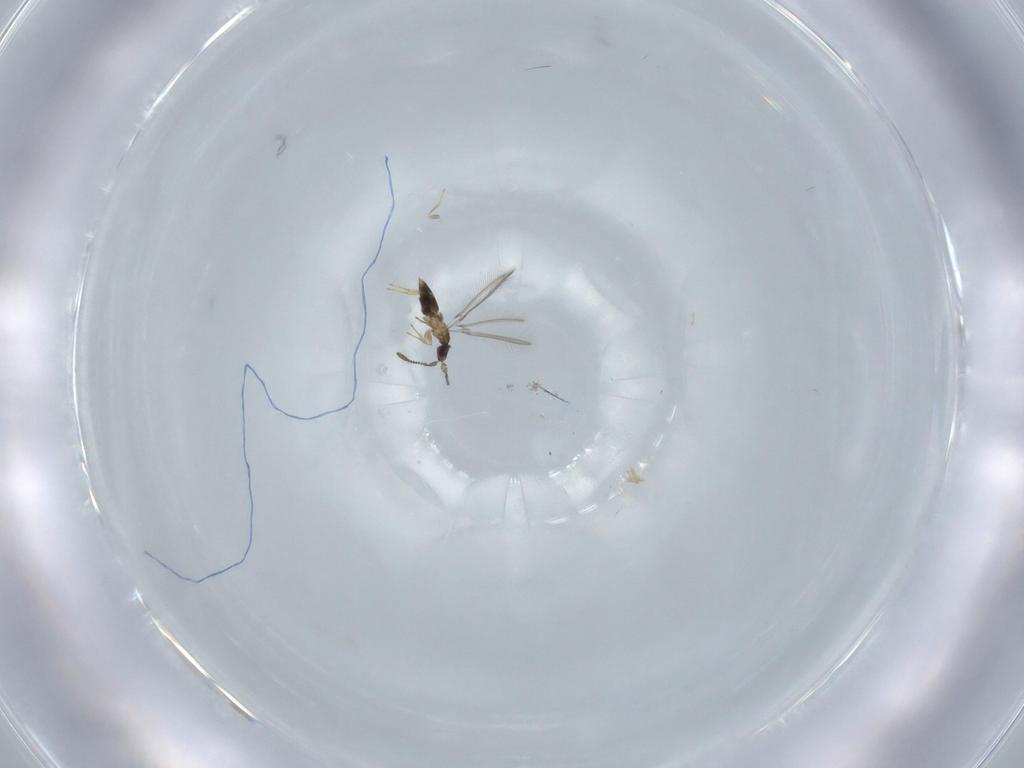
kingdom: Animalia
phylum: Arthropoda
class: Insecta
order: Hymenoptera
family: Mymaridae
